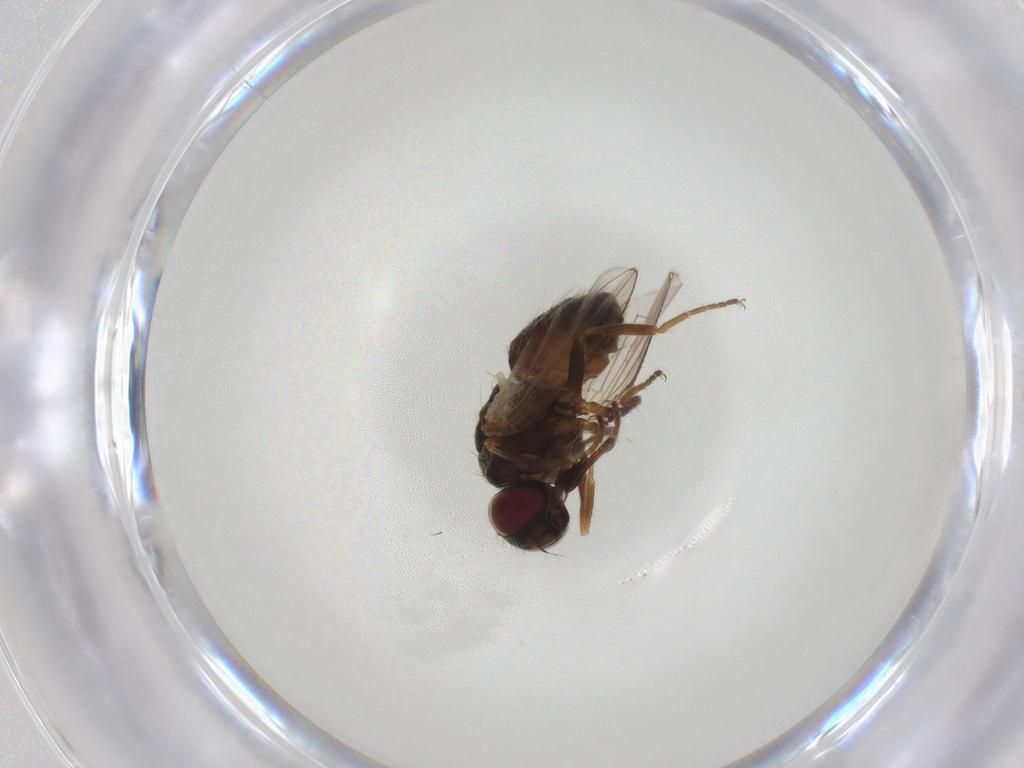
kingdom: Animalia
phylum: Arthropoda
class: Insecta
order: Diptera
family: Muscidae
